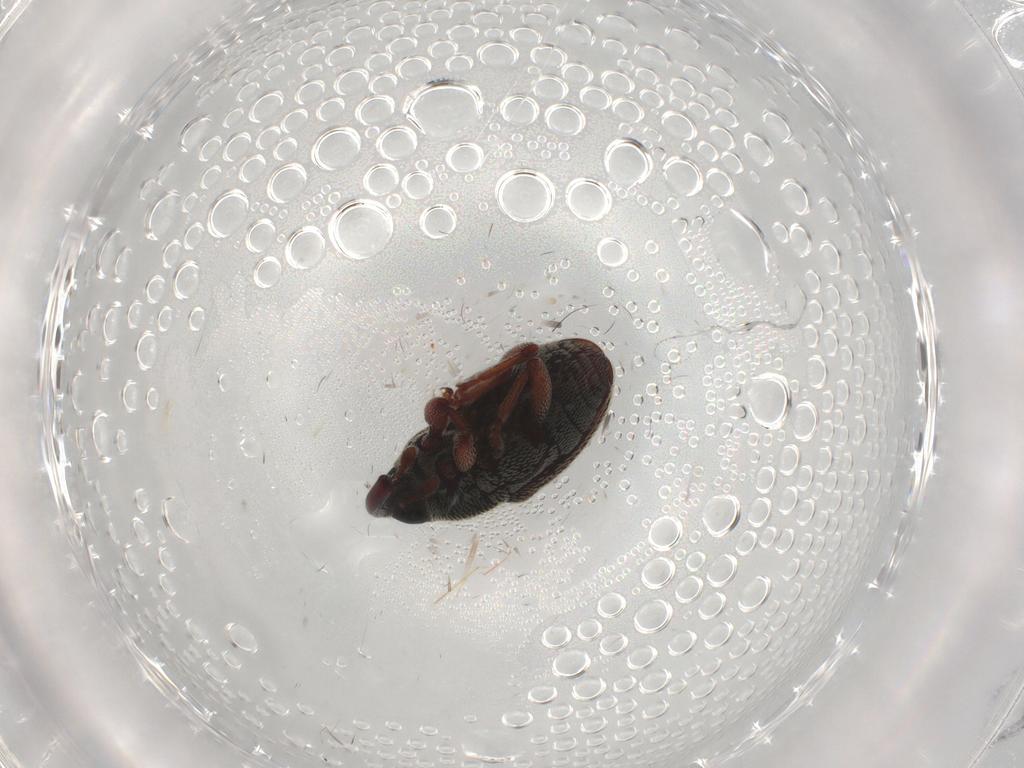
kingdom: Animalia
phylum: Arthropoda
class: Insecta
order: Coleoptera
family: Curculionidae
